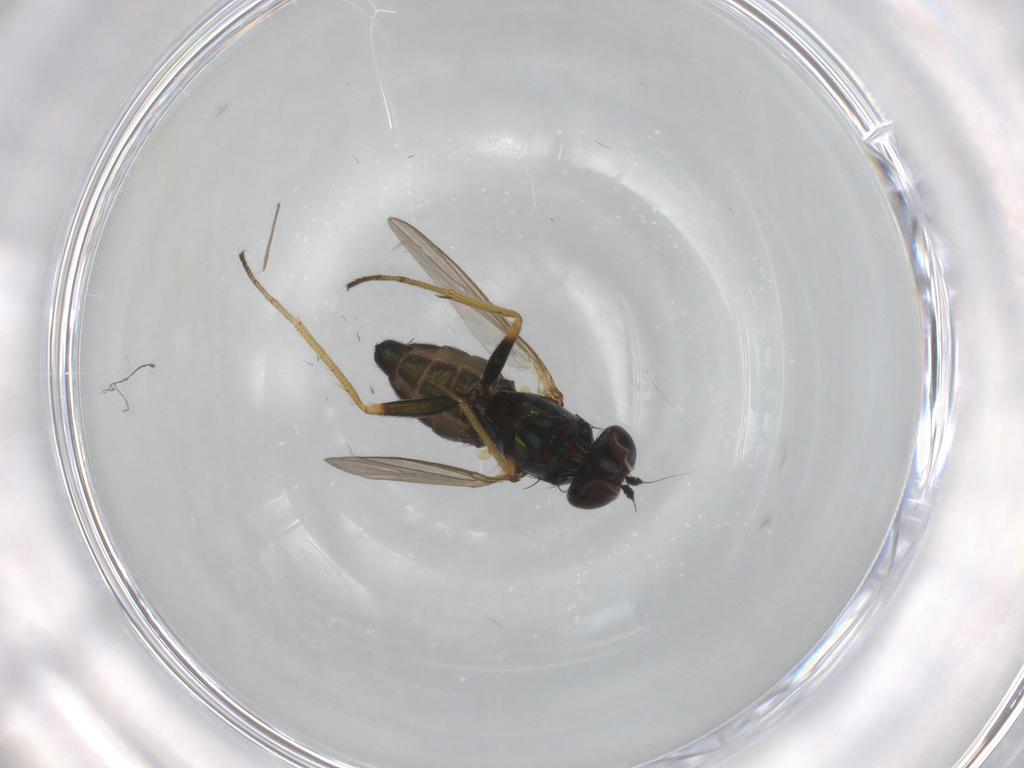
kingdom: Animalia
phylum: Arthropoda
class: Insecta
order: Diptera
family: Dolichopodidae
